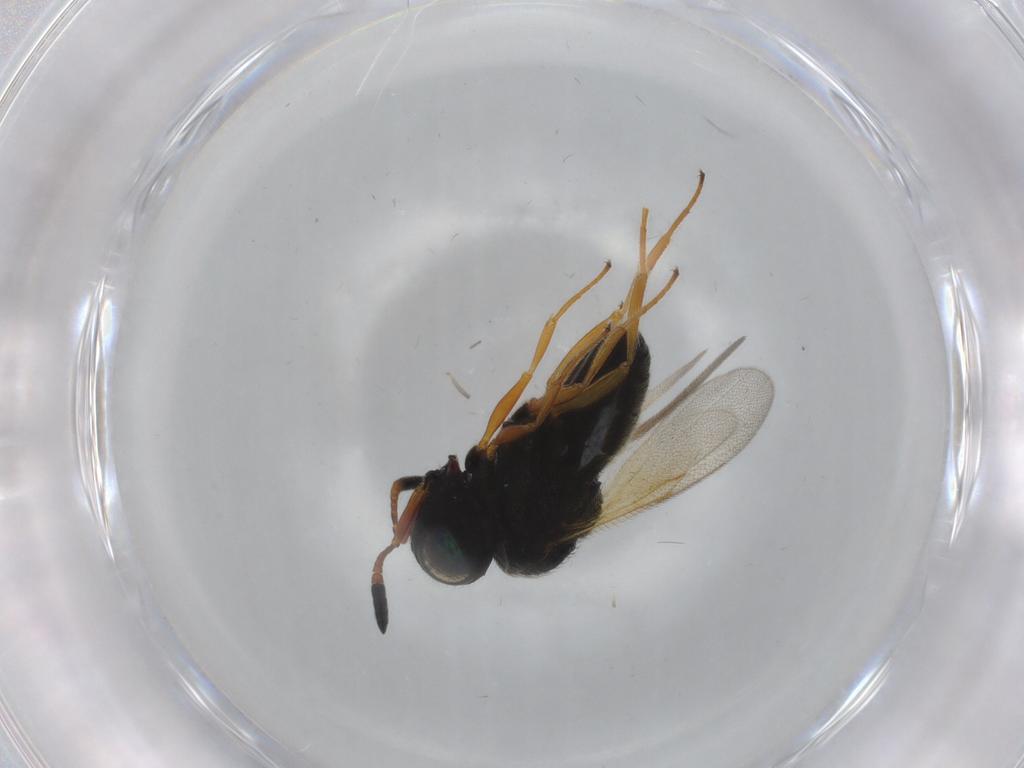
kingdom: Animalia
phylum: Arthropoda
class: Insecta
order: Hymenoptera
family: Scelionidae
